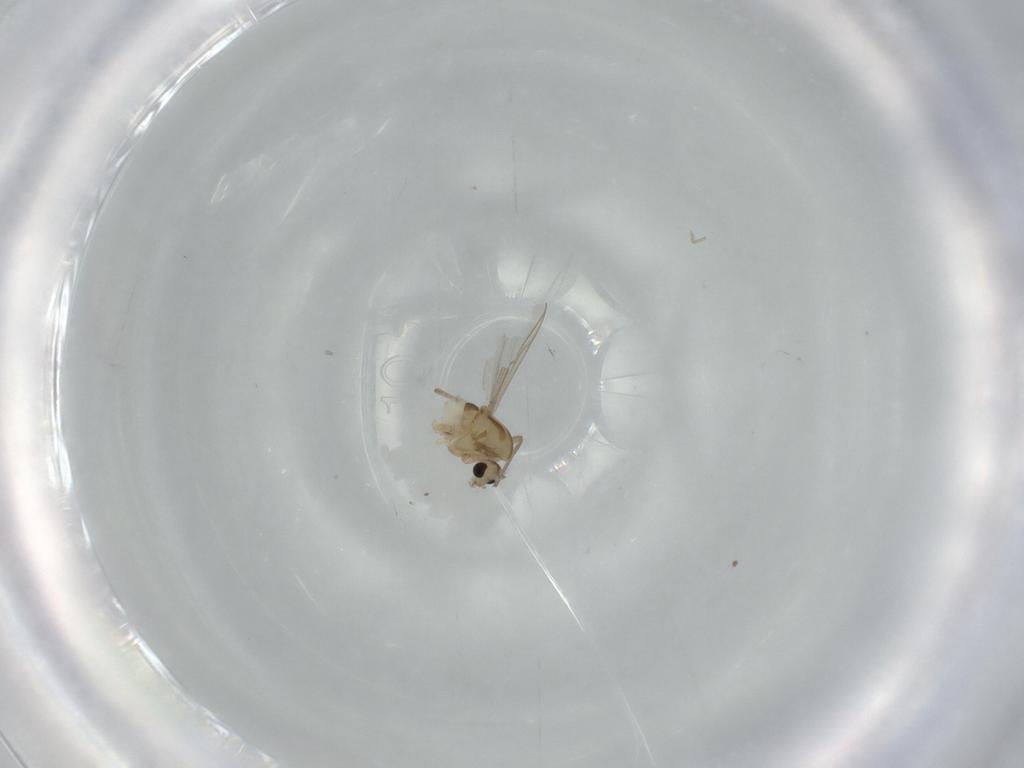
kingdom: Animalia
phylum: Arthropoda
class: Insecta
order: Diptera
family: Chironomidae
